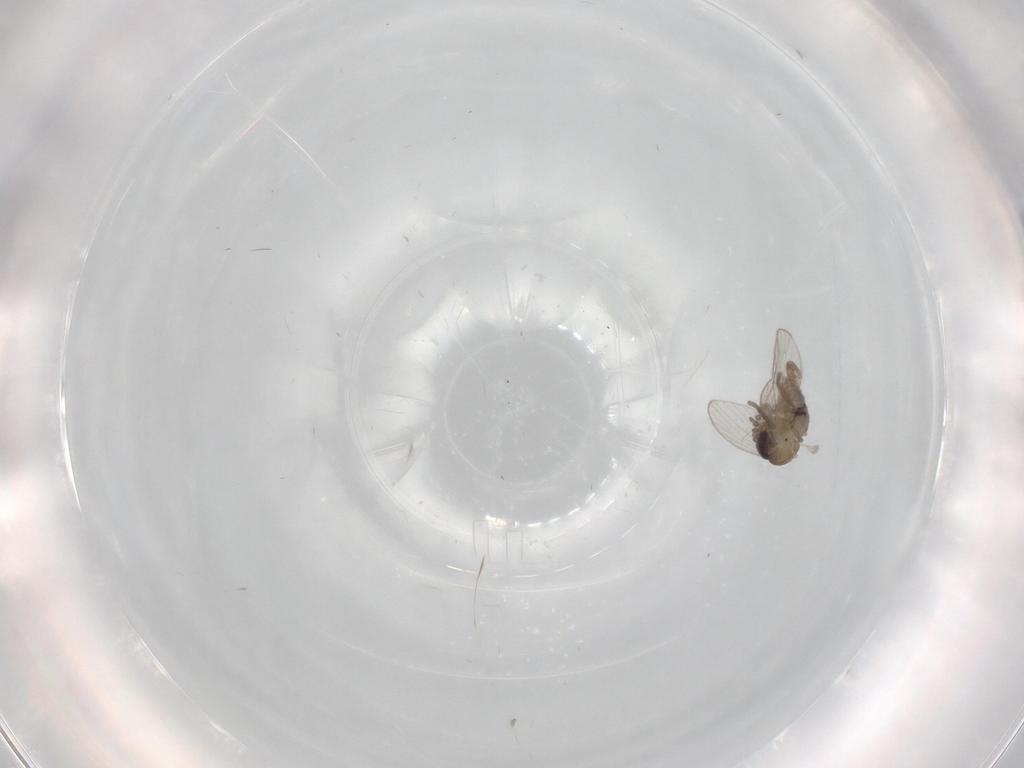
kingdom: Animalia
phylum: Arthropoda
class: Insecta
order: Diptera
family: Psychodidae
